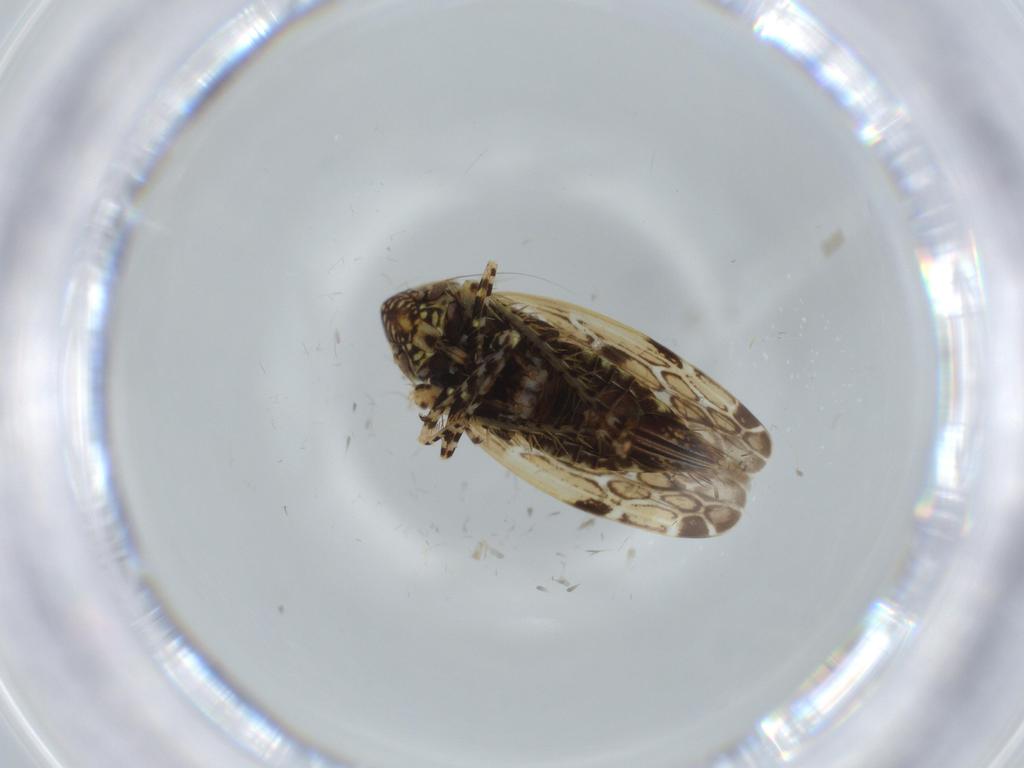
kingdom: Animalia
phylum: Arthropoda
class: Insecta
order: Hemiptera
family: Cicadellidae
